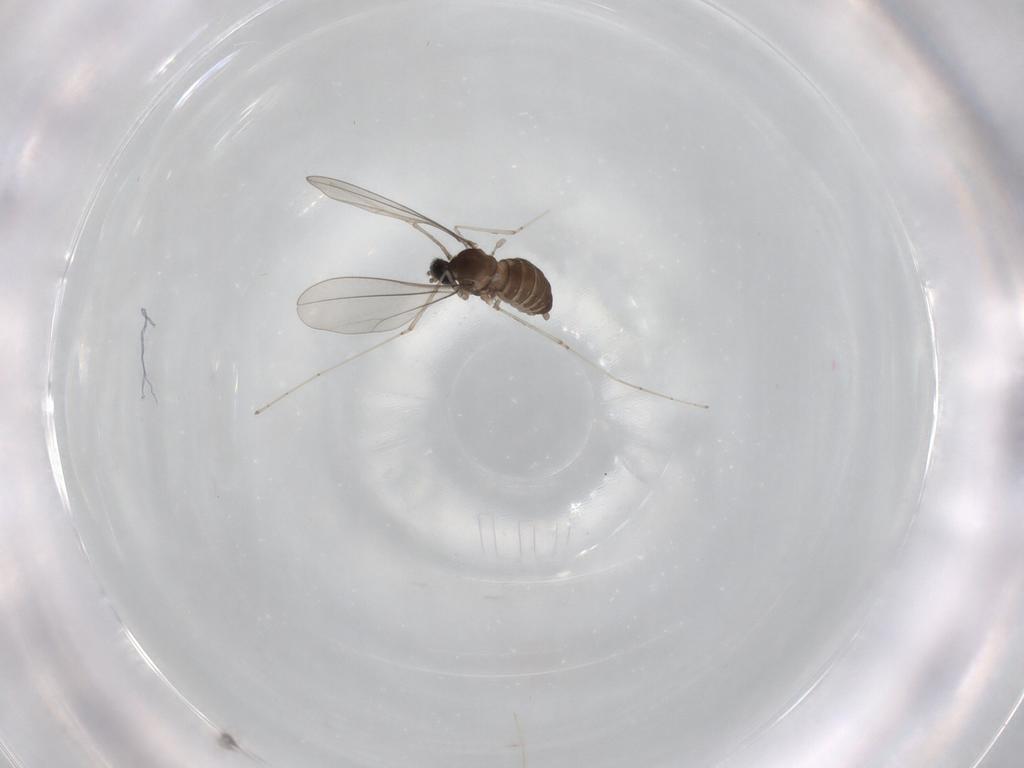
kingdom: Animalia
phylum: Arthropoda
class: Insecta
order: Diptera
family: Cecidomyiidae
